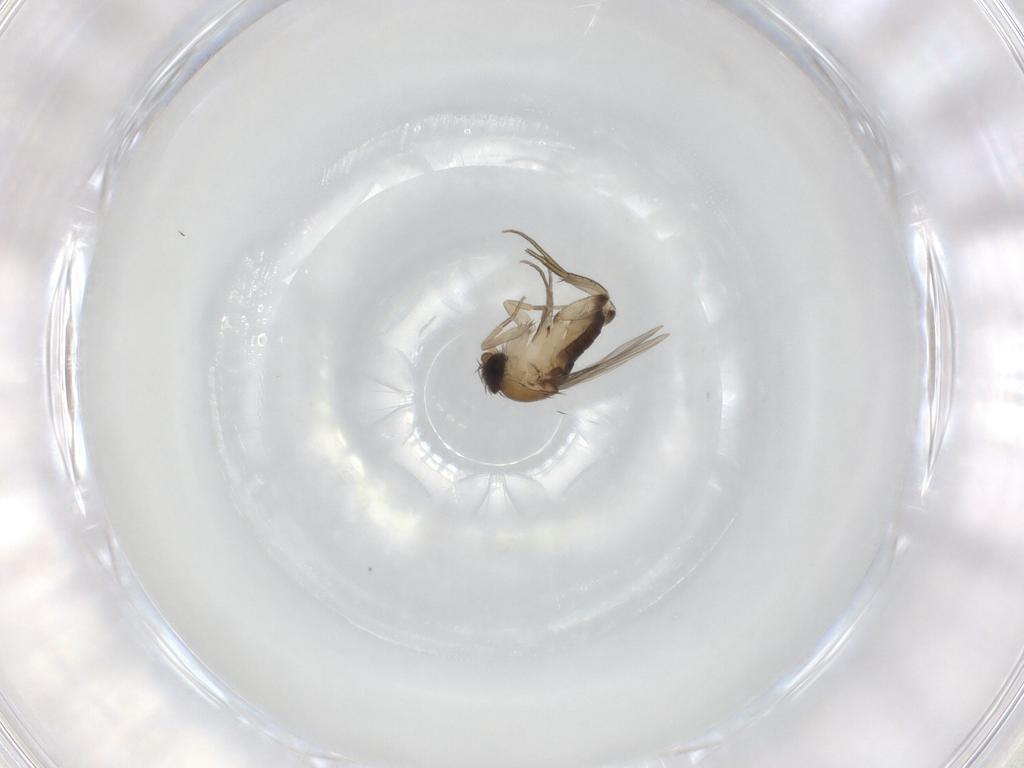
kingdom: Animalia
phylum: Arthropoda
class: Insecta
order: Diptera
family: Phoridae
